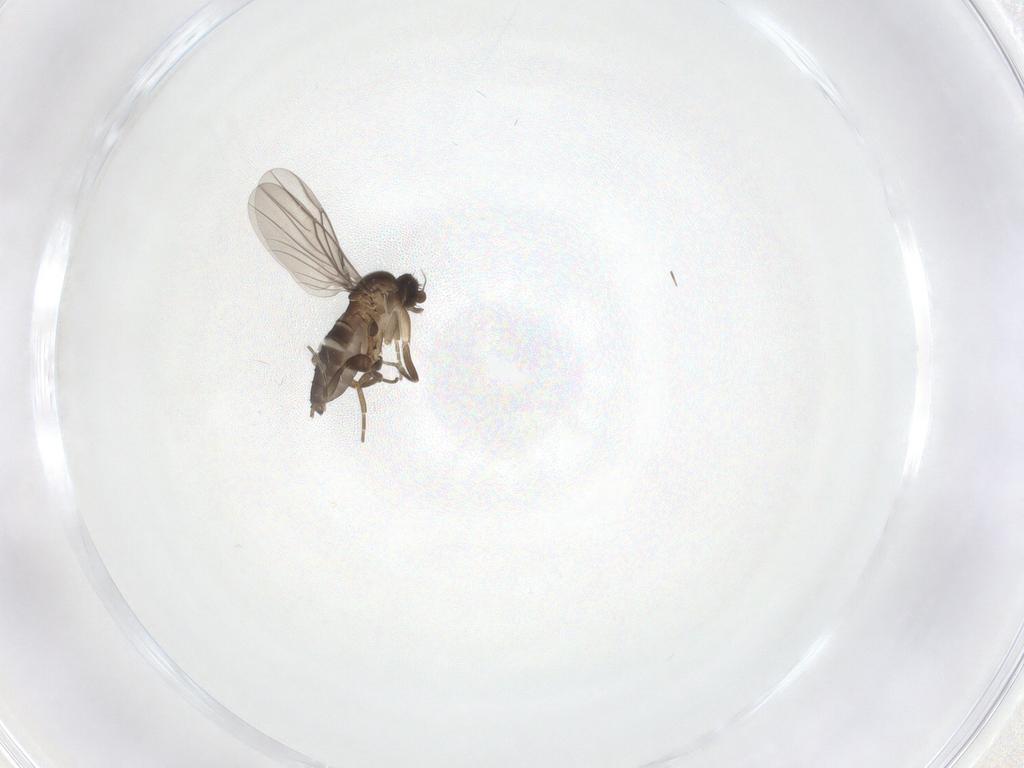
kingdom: Animalia
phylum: Arthropoda
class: Insecta
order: Diptera
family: Phoridae
